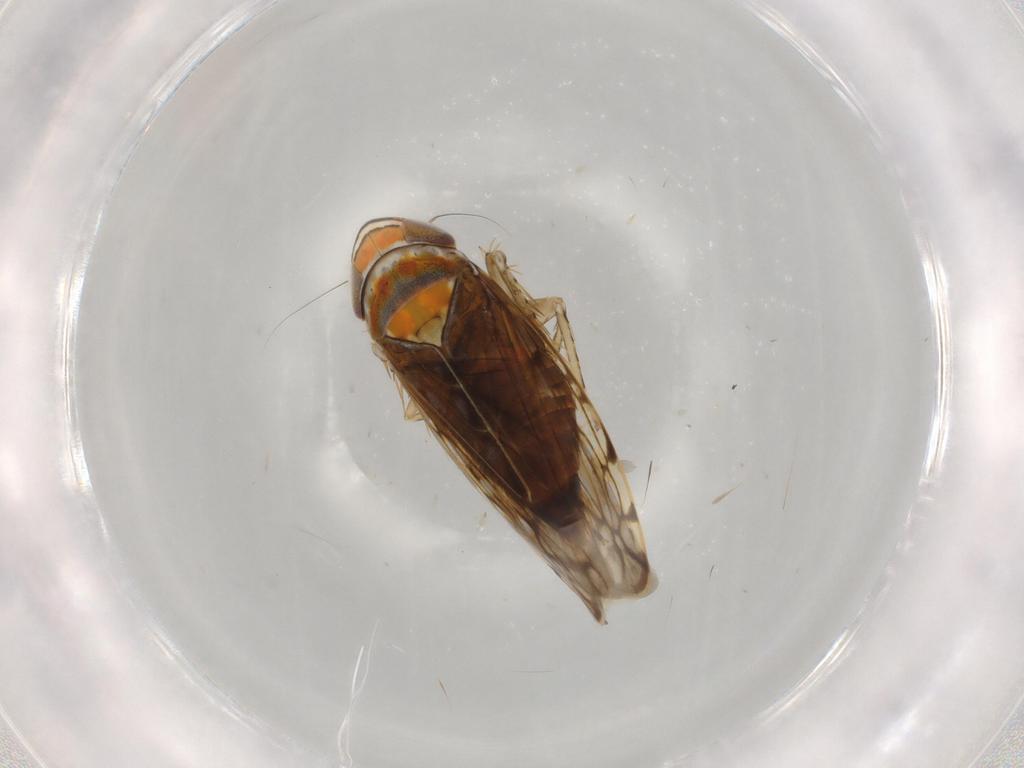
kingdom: Animalia
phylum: Arthropoda
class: Insecta
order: Hemiptera
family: Cicadellidae
